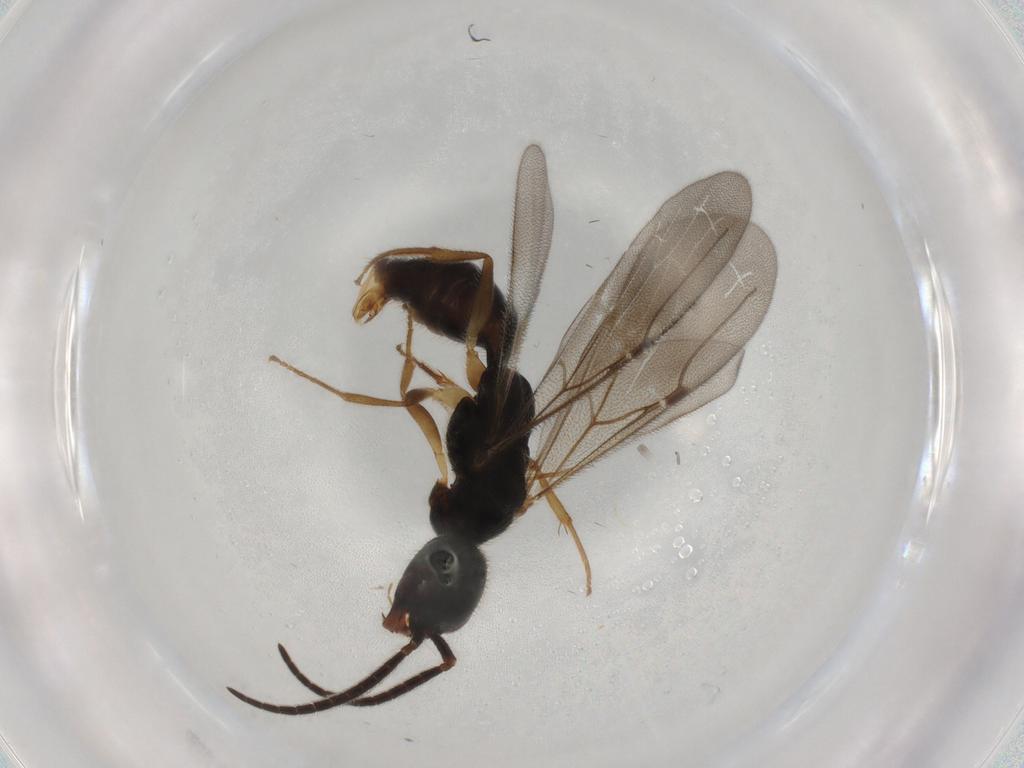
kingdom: Animalia
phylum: Arthropoda
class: Insecta
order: Hymenoptera
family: Bethylidae
